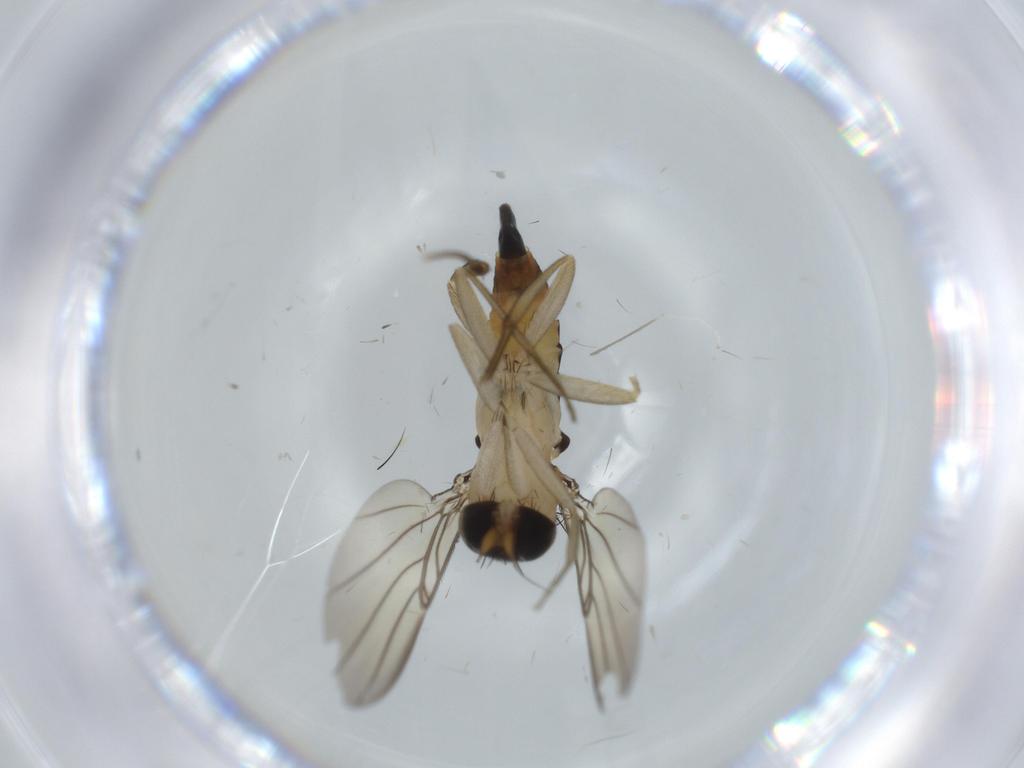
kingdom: Animalia
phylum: Arthropoda
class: Insecta
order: Diptera
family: Phoridae
